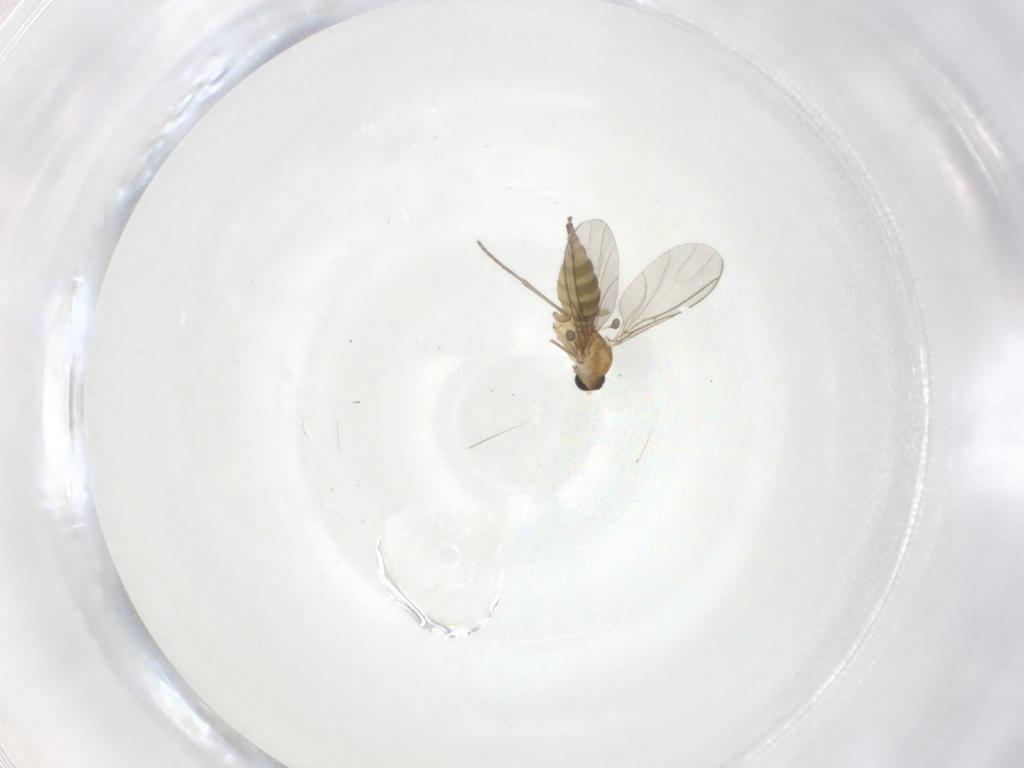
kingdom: Animalia
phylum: Arthropoda
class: Insecta
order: Diptera
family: Sciaridae
